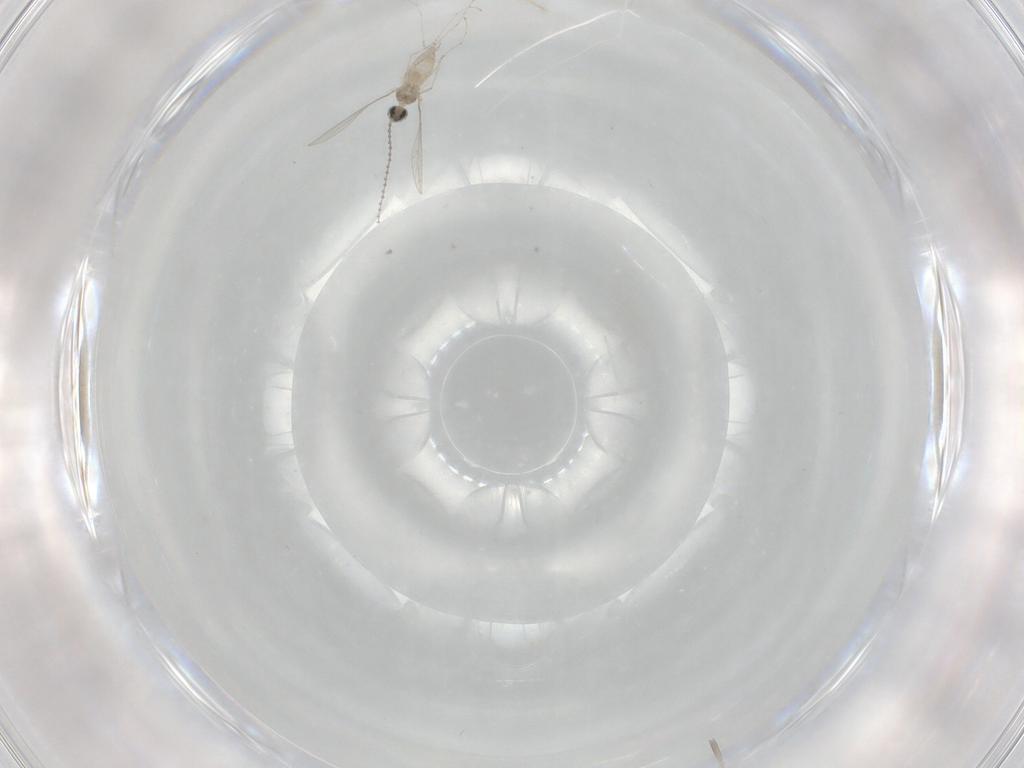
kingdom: Animalia
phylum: Arthropoda
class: Insecta
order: Diptera
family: Cecidomyiidae
